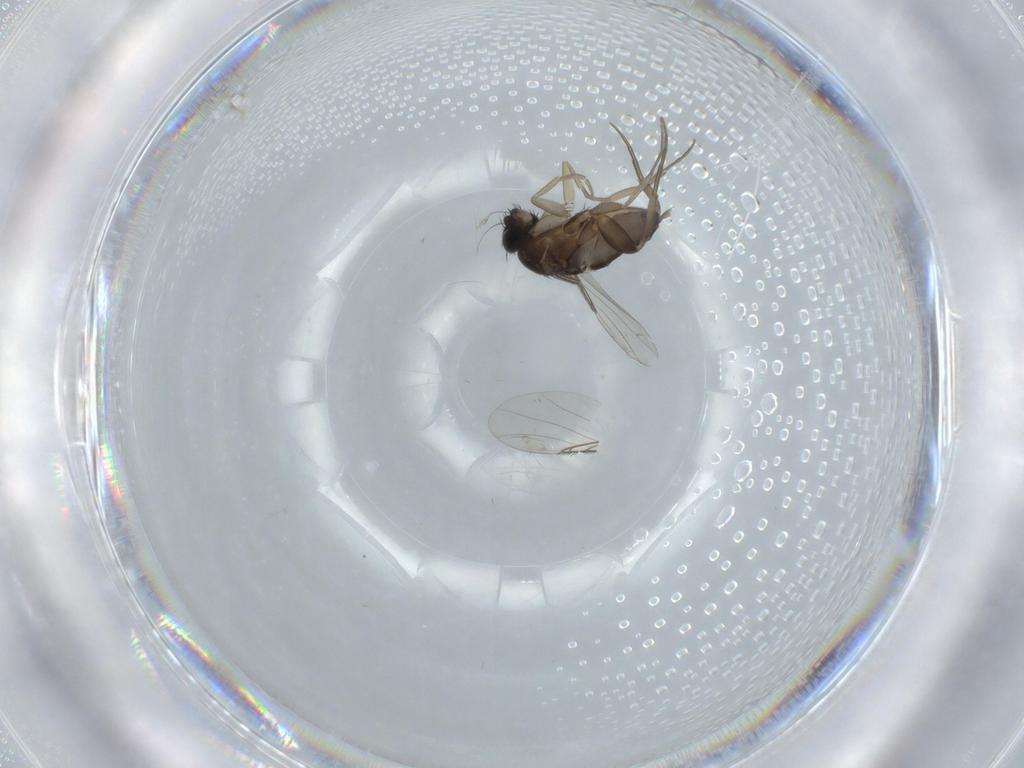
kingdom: Animalia
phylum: Arthropoda
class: Insecta
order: Diptera
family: Phoridae
